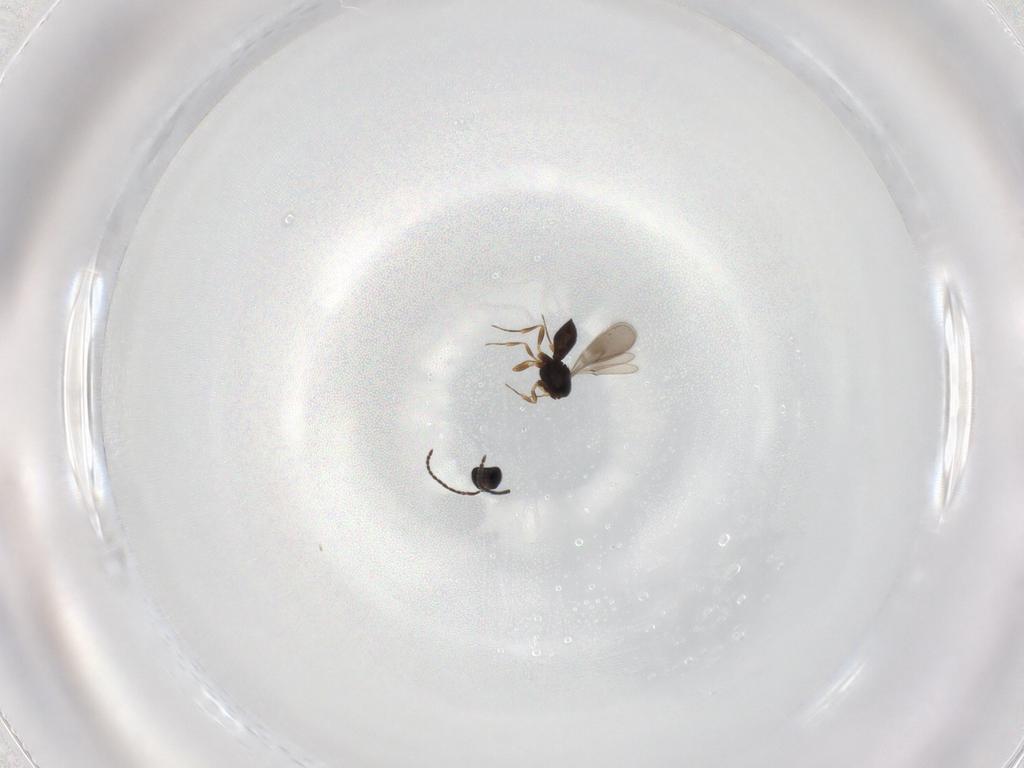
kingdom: Animalia
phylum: Arthropoda
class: Insecta
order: Hymenoptera
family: Scelionidae
